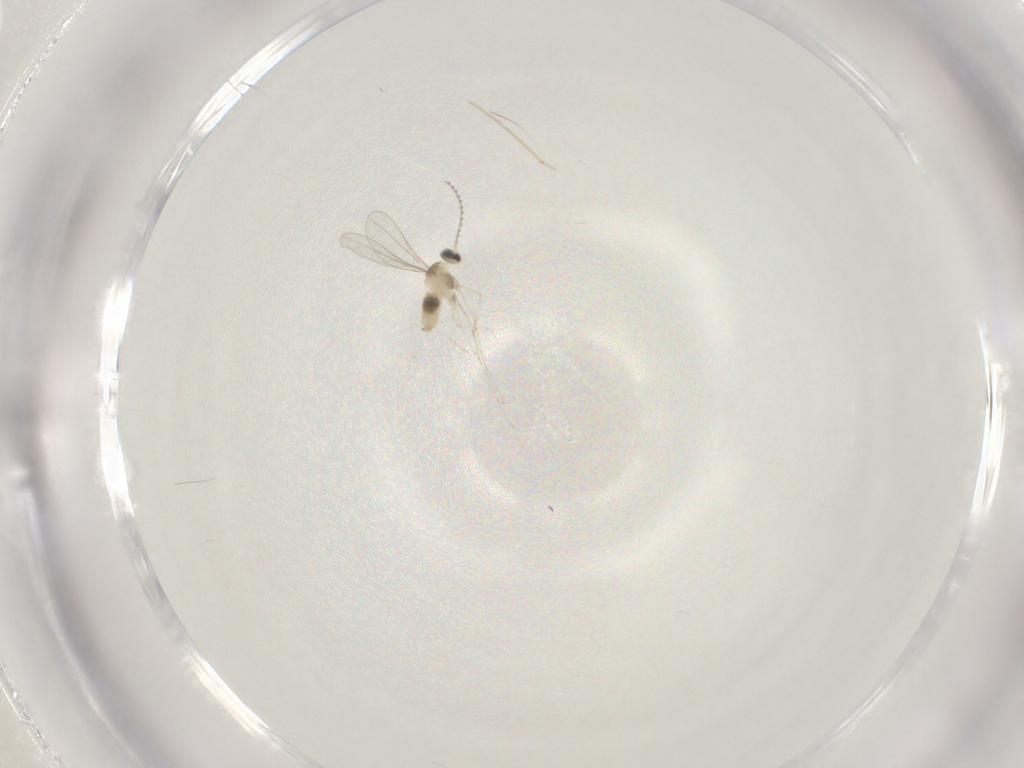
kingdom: Animalia
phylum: Arthropoda
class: Insecta
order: Diptera
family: Cecidomyiidae
